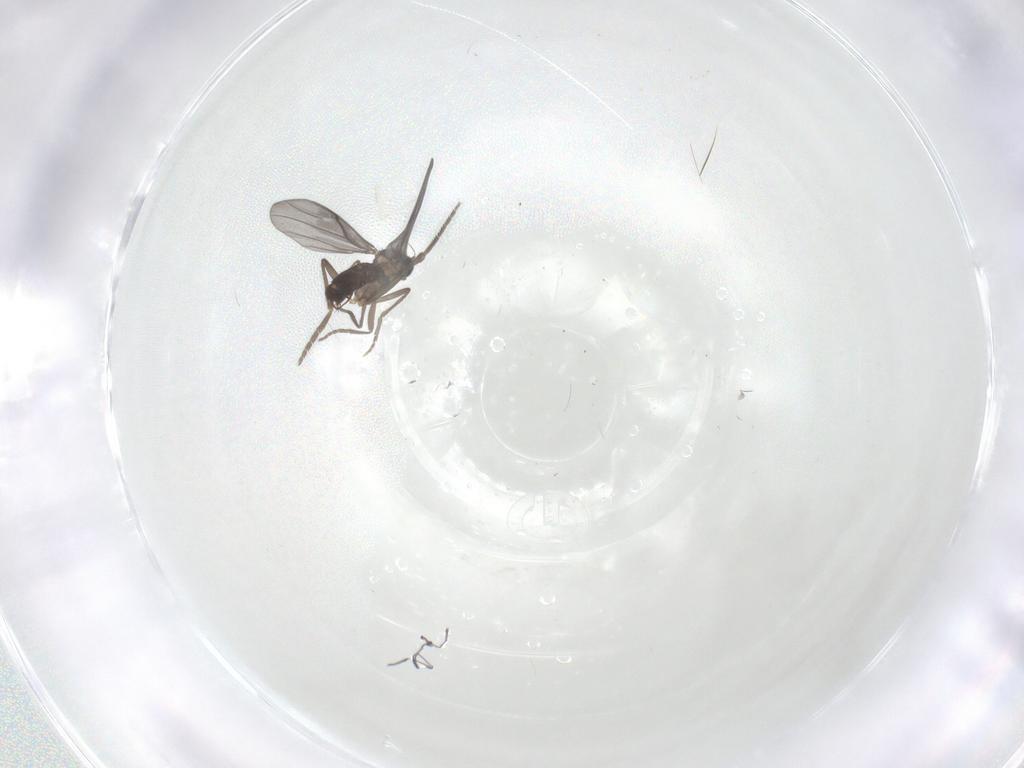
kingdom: Animalia
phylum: Arthropoda
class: Insecta
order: Diptera
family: Phoridae
